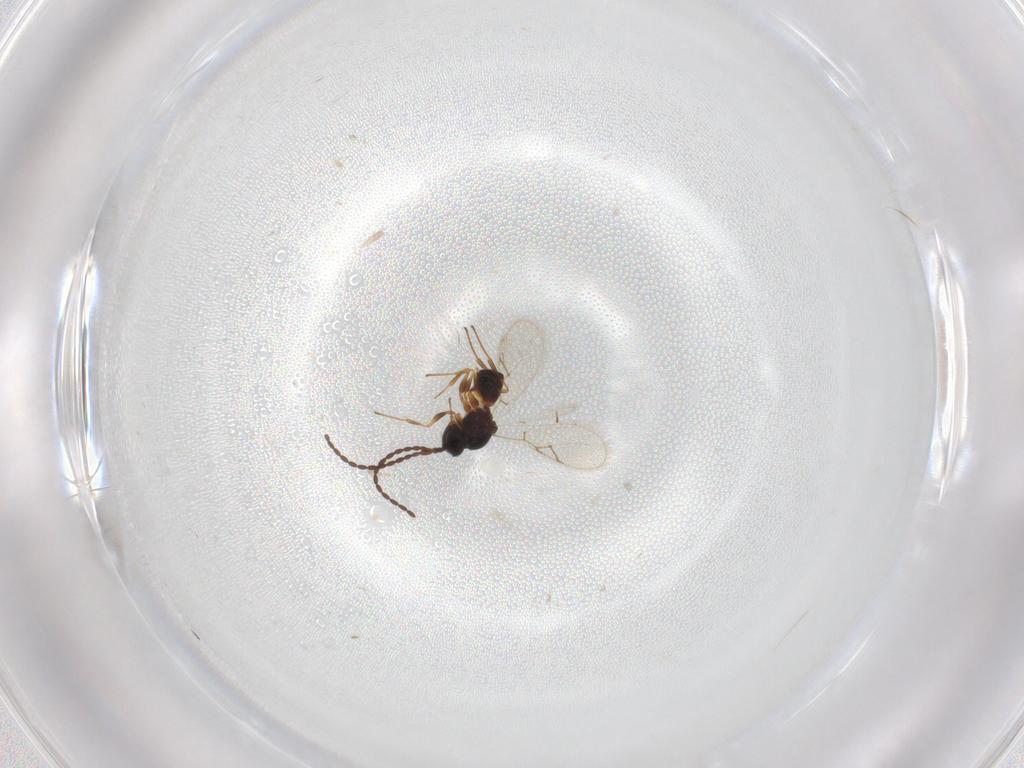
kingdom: Animalia
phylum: Arthropoda
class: Insecta
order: Hymenoptera
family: Figitidae
